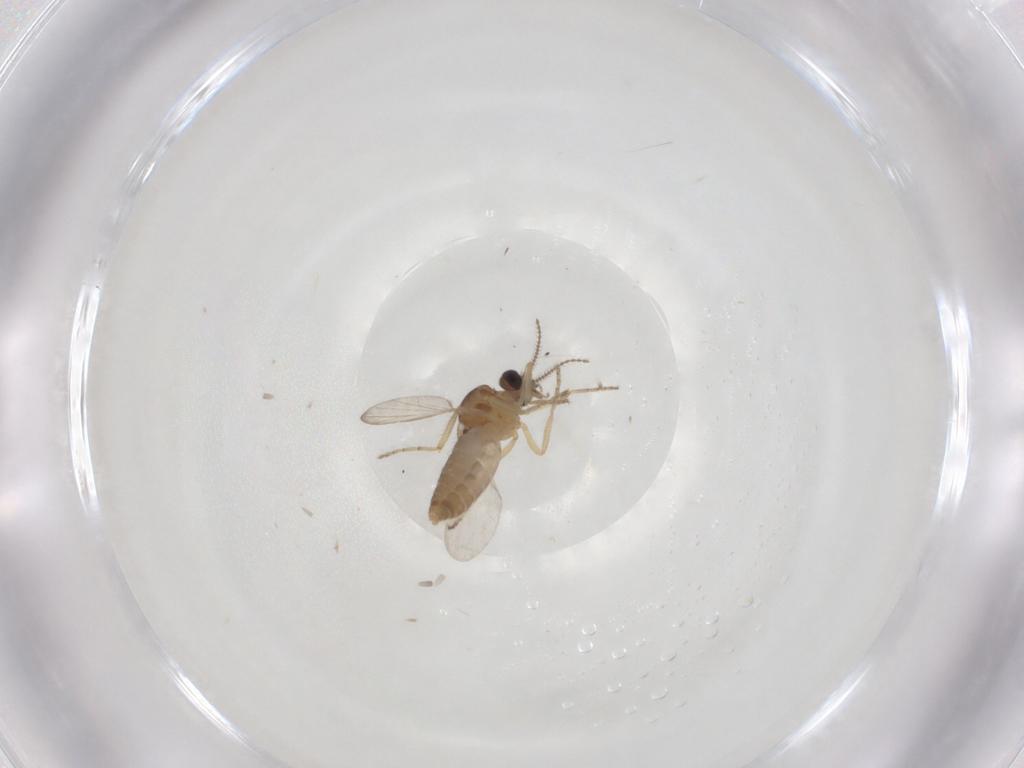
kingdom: Animalia
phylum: Arthropoda
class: Insecta
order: Diptera
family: Ceratopogonidae
